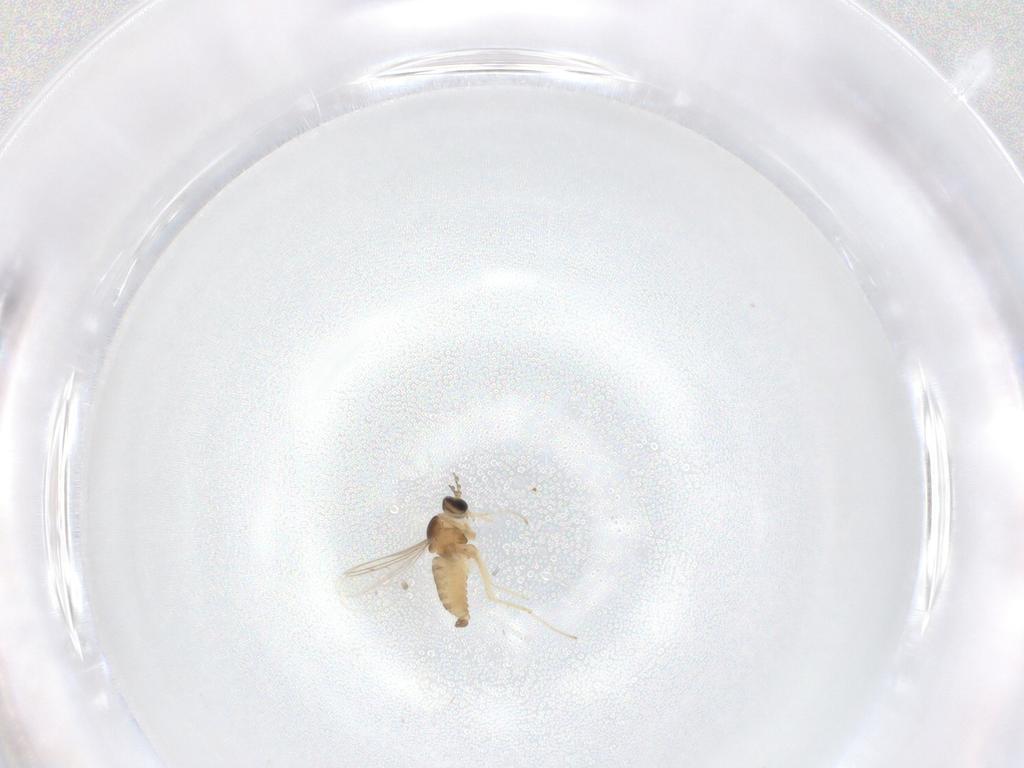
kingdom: Animalia
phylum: Arthropoda
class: Insecta
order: Diptera
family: Cecidomyiidae
